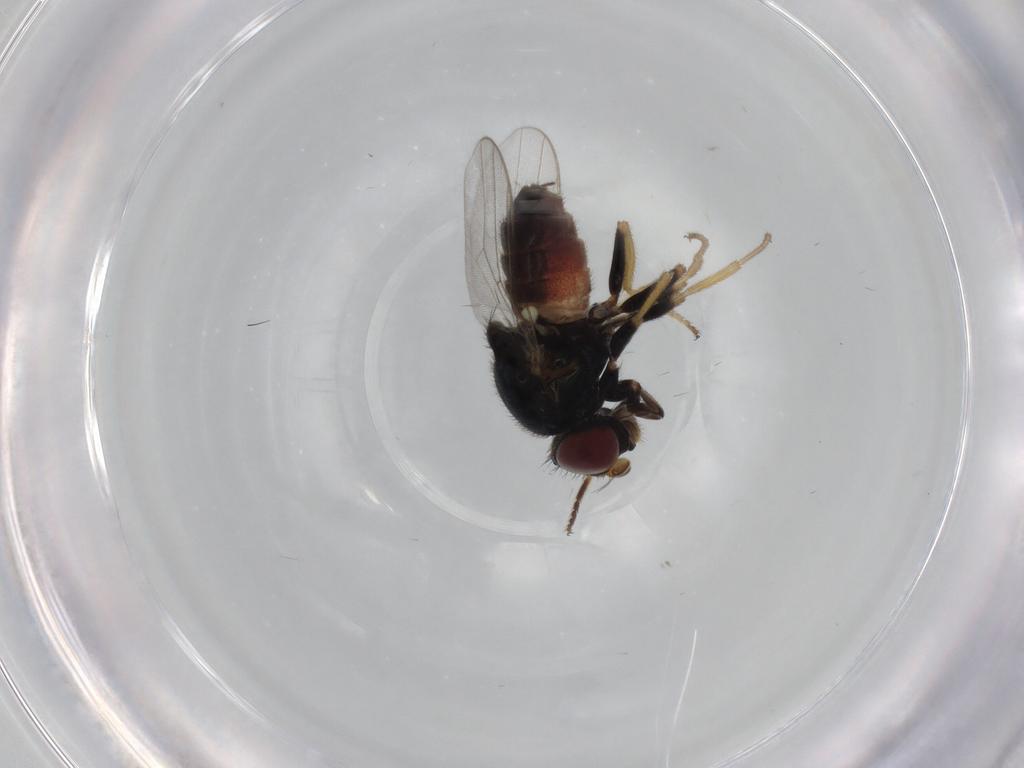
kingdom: Animalia
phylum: Arthropoda
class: Insecta
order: Diptera
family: Chloropidae
